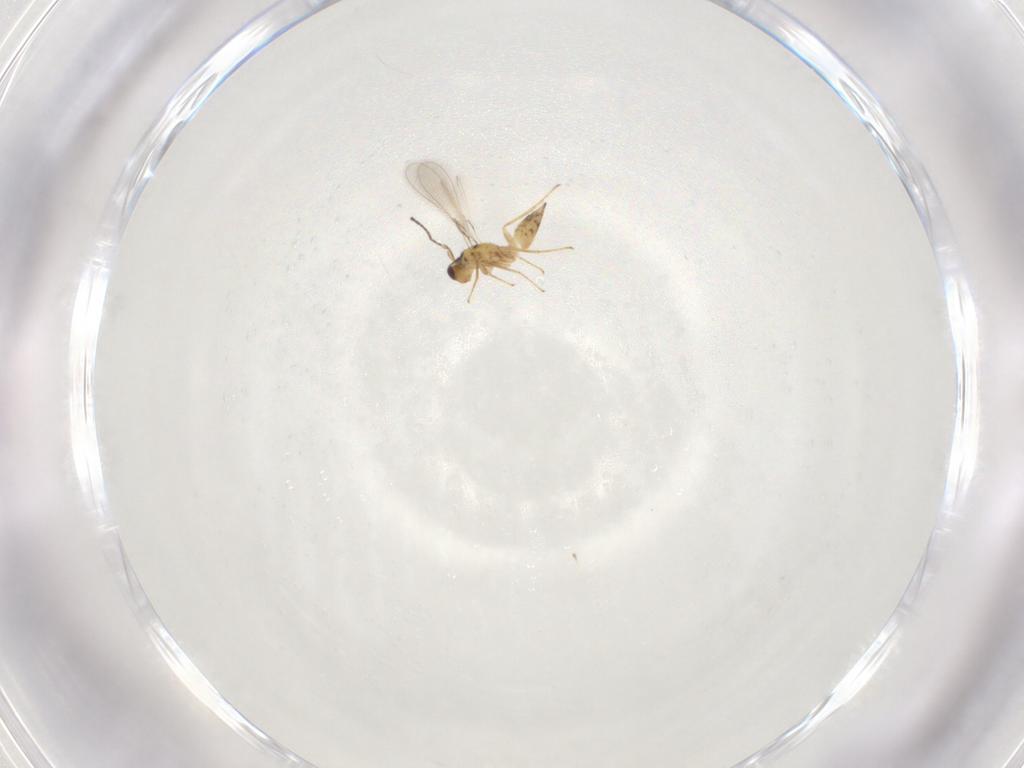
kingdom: Animalia
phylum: Arthropoda
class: Insecta
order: Hymenoptera
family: Mymaridae
